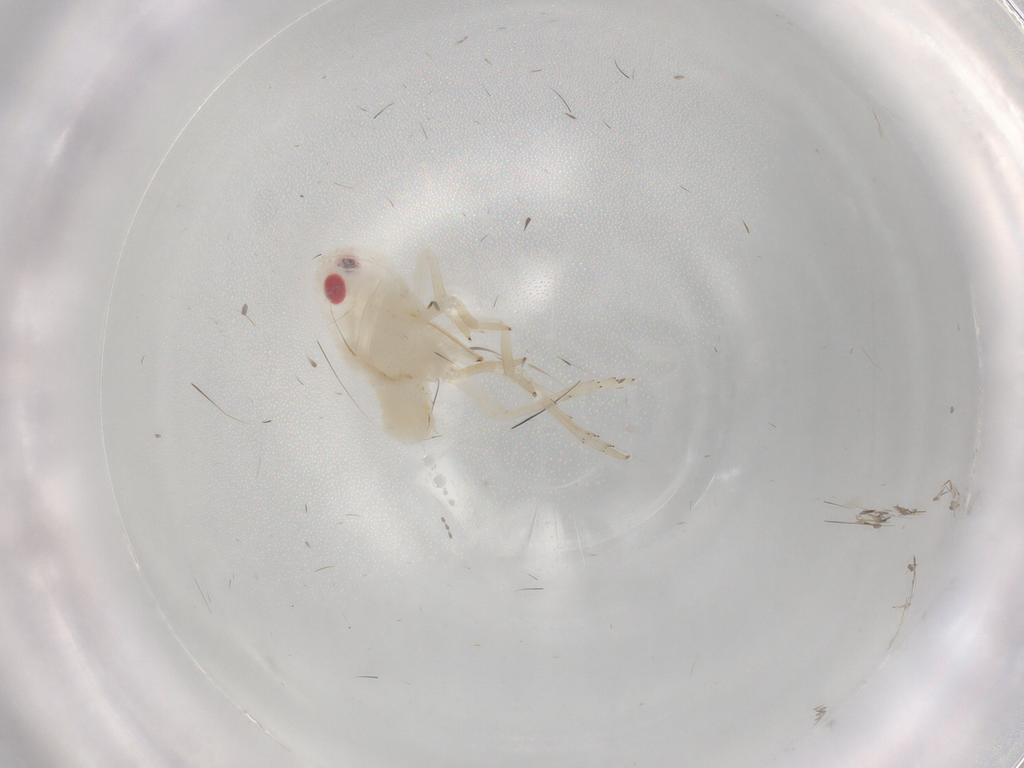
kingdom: Animalia
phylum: Arthropoda
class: Insecta
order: Hemiptera
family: Tropiduchidae
